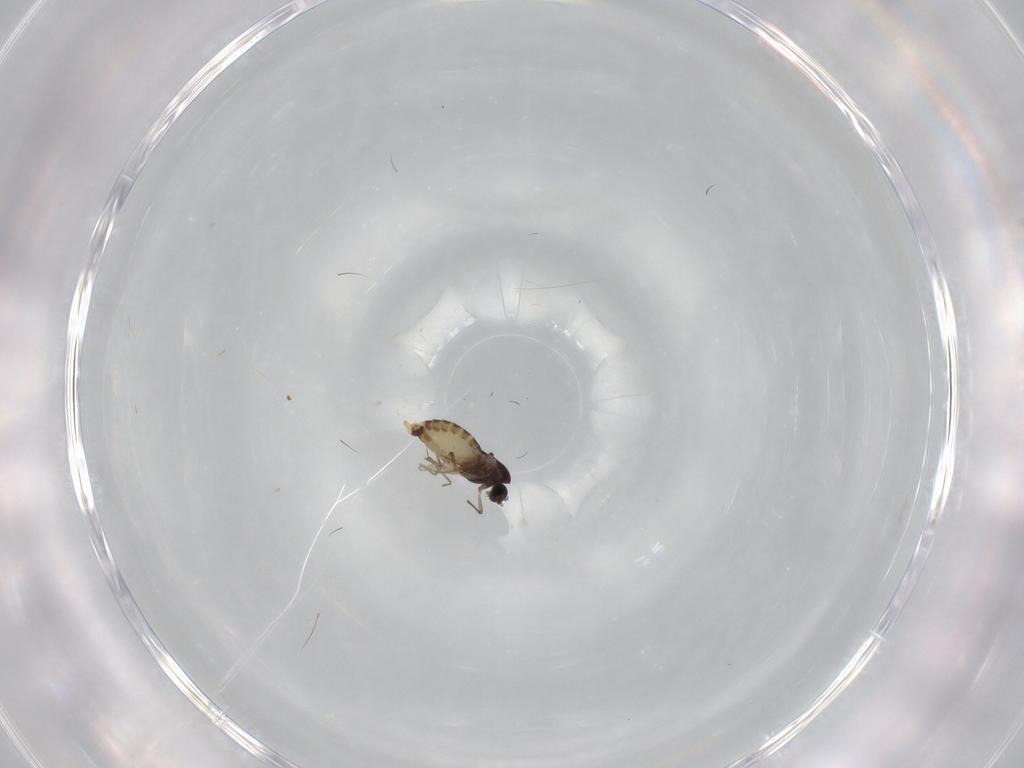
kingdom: Animalia
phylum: Arthropoda
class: Insecta
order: Diptera
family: Chironomidae
